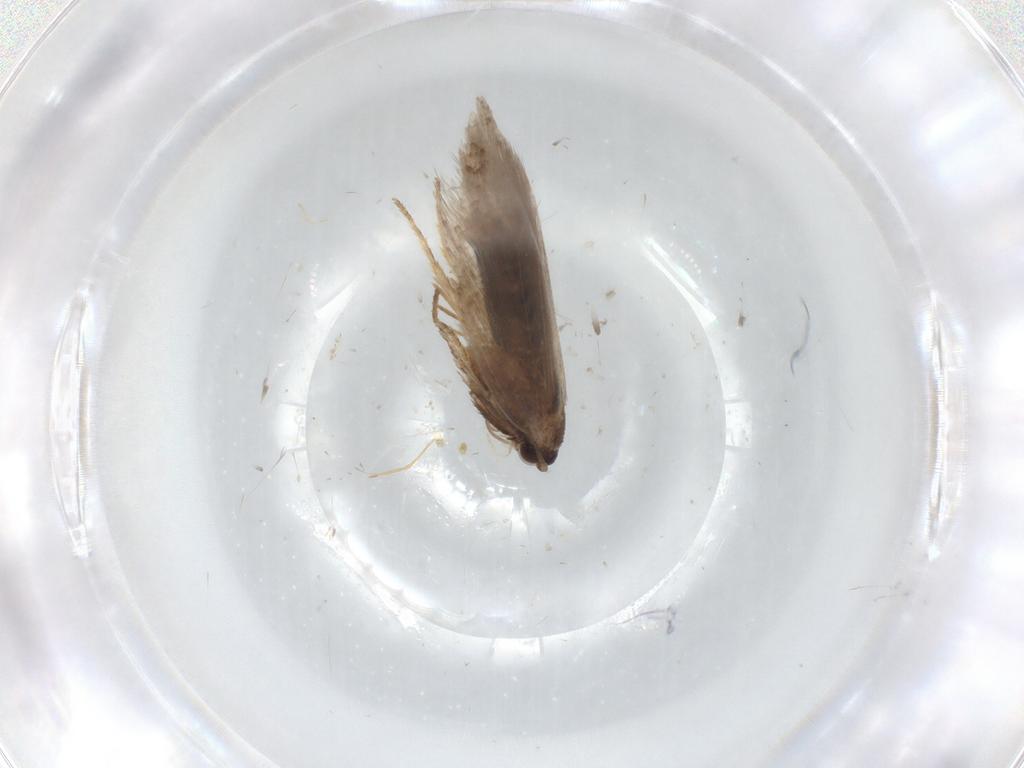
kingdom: Animalia
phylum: Arthropoda
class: Insecta
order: Lepidoptera
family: Nepticulidae
